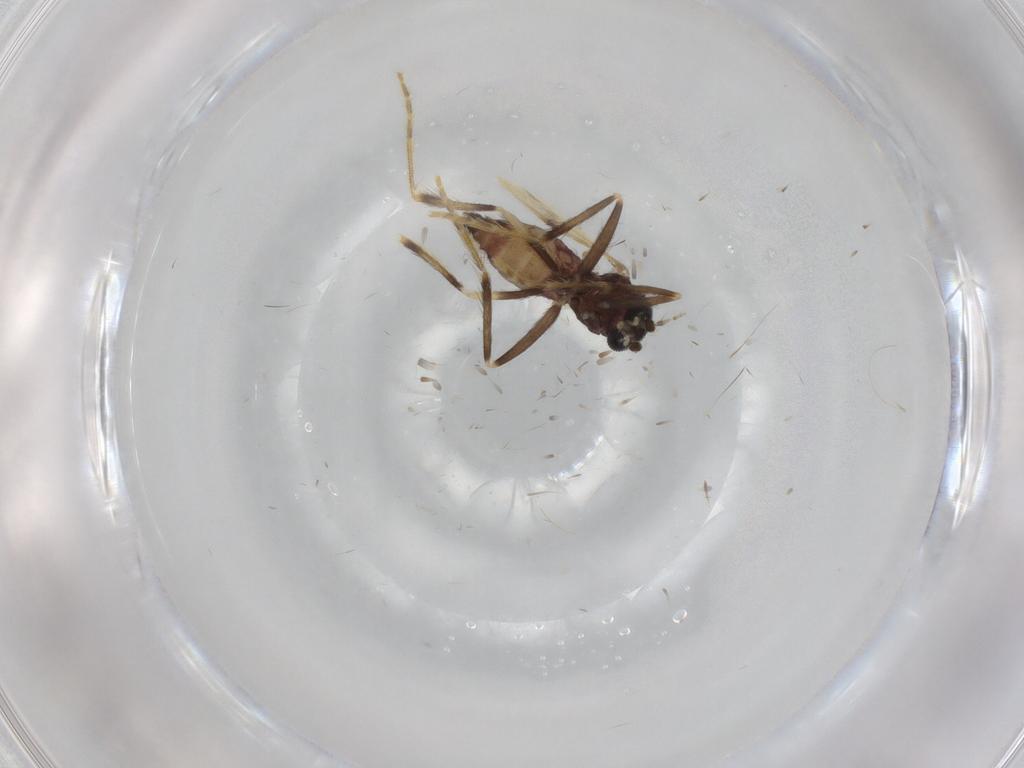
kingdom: Animalia
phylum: Arthropoda
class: Insecta
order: Diptera
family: Corethrellidae
